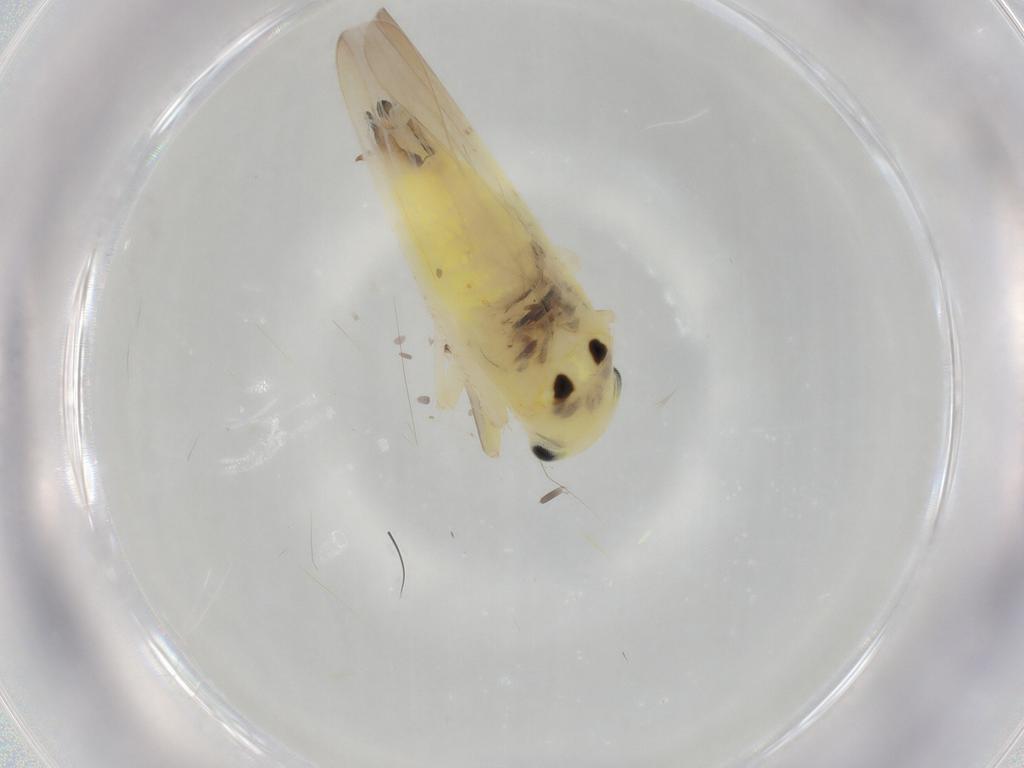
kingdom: Animalia
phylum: Arthropoda
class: Insecta
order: Hemiptera
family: Cicadellidae
